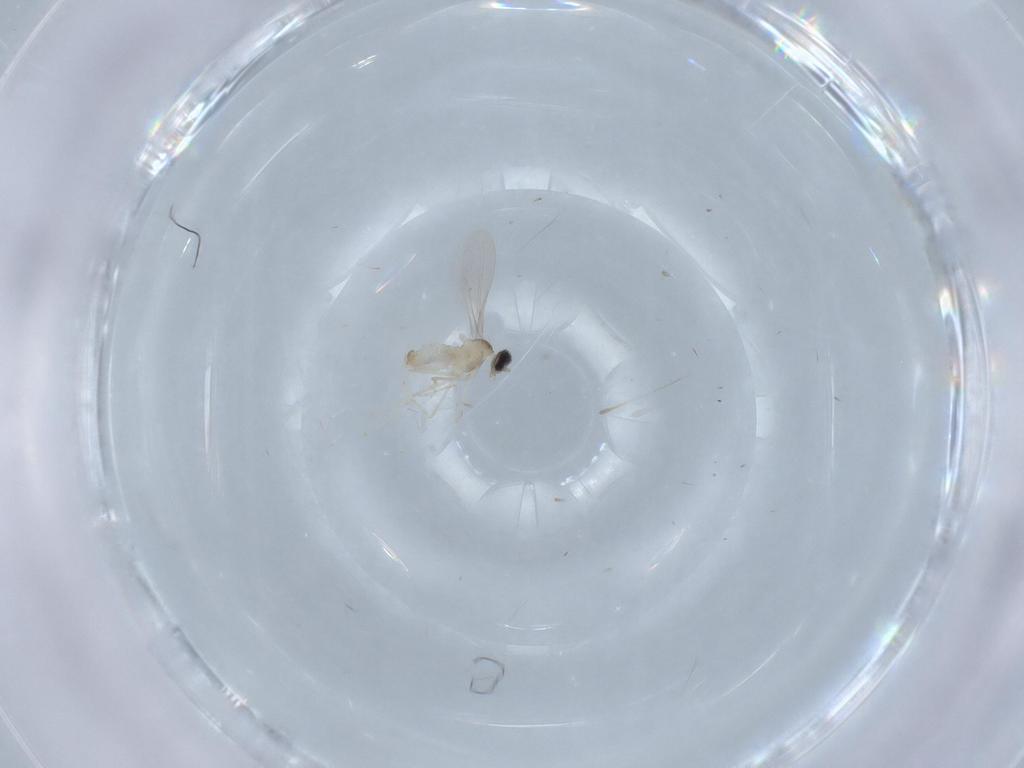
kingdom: Animalia
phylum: Arthropoda
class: Insecta
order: Diptera
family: Cecidomyiidae
